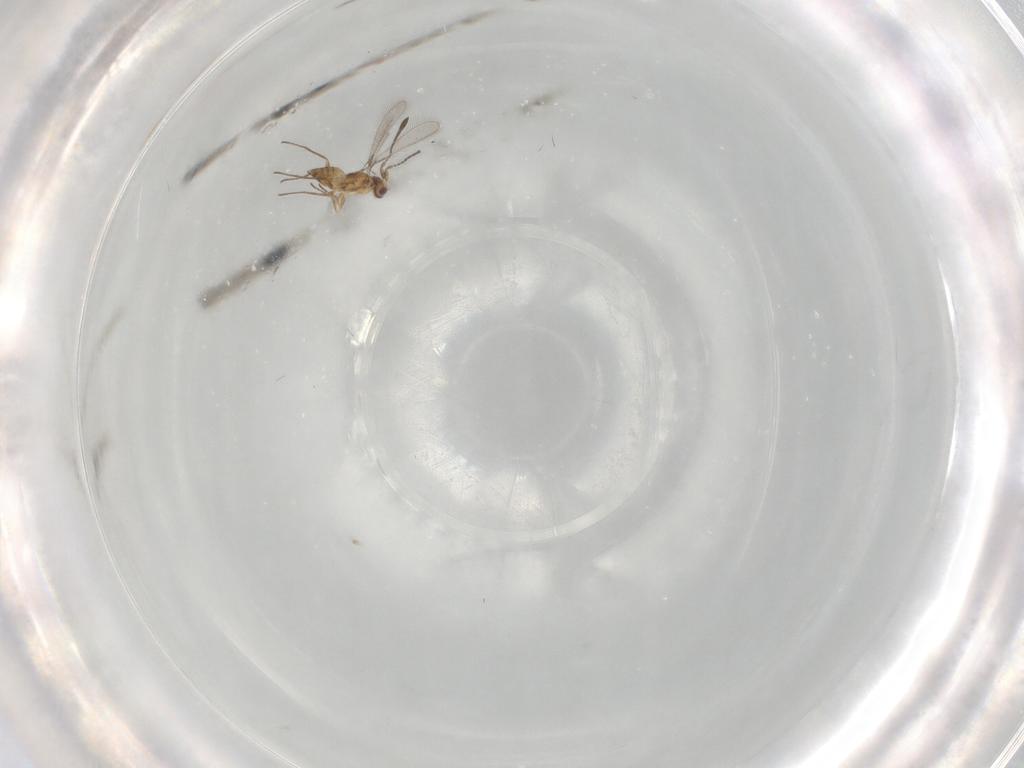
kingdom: Animalia
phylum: Arthropoda
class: Insecta
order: Hymenoptera
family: Mymaridae
